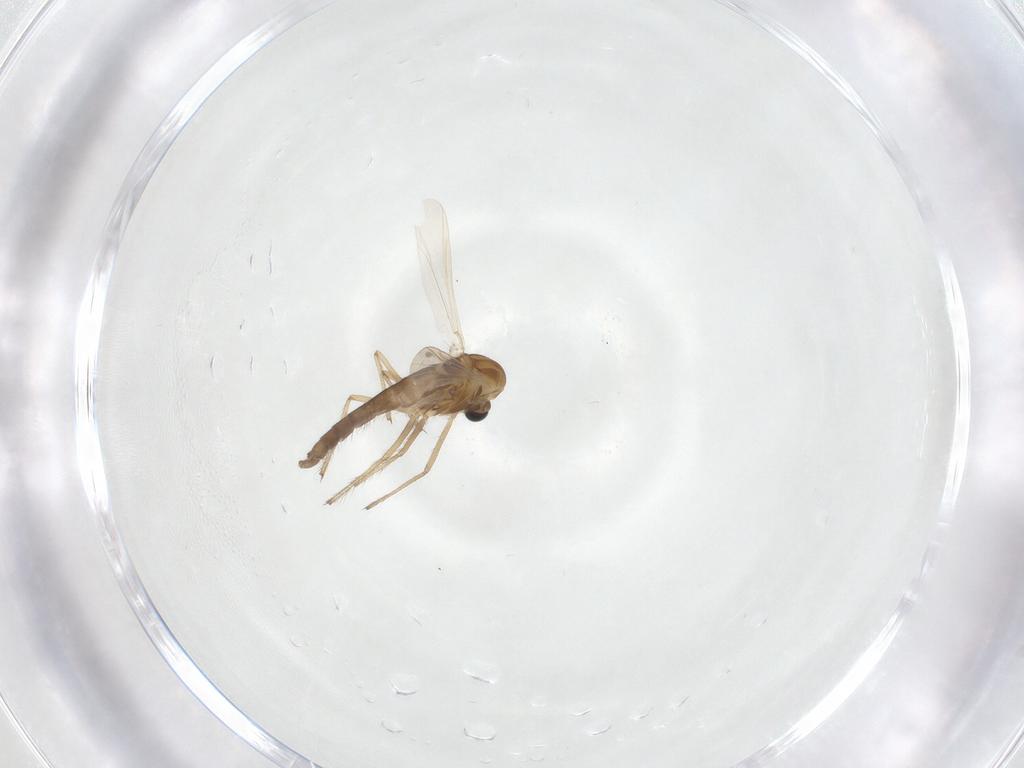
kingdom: Animalia
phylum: Arthropoda
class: Insecta
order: Diptera
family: Chironomidae
